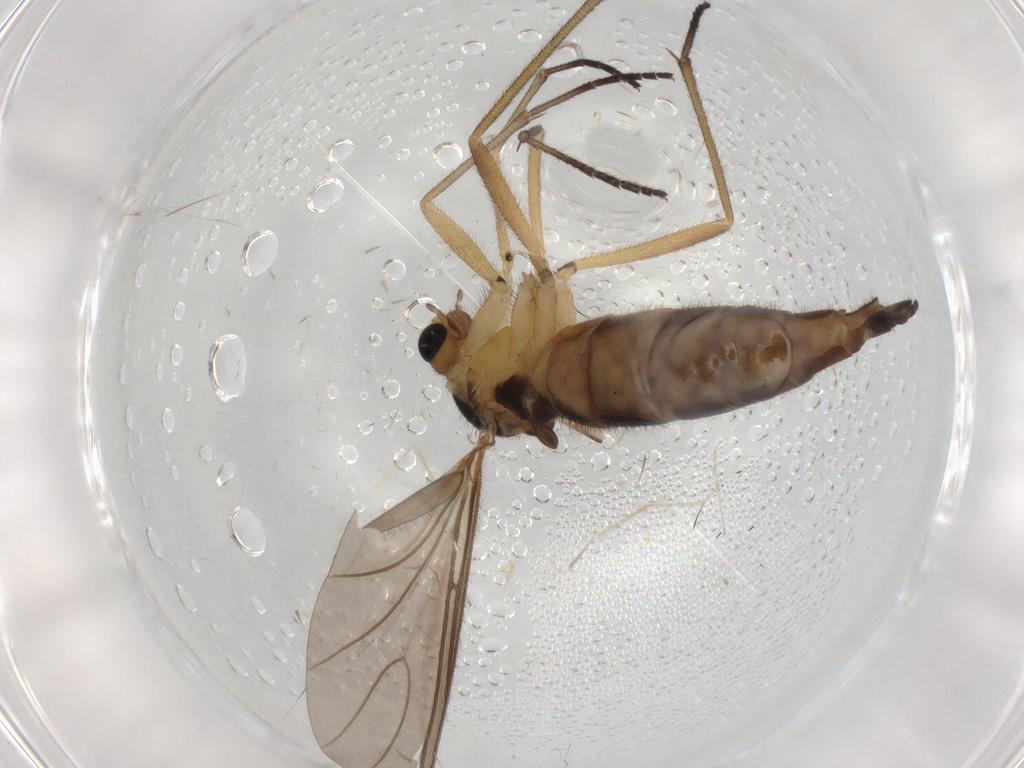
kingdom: Animalia
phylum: Arthropoda
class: Insecta
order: Diptera
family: Sciaridae
